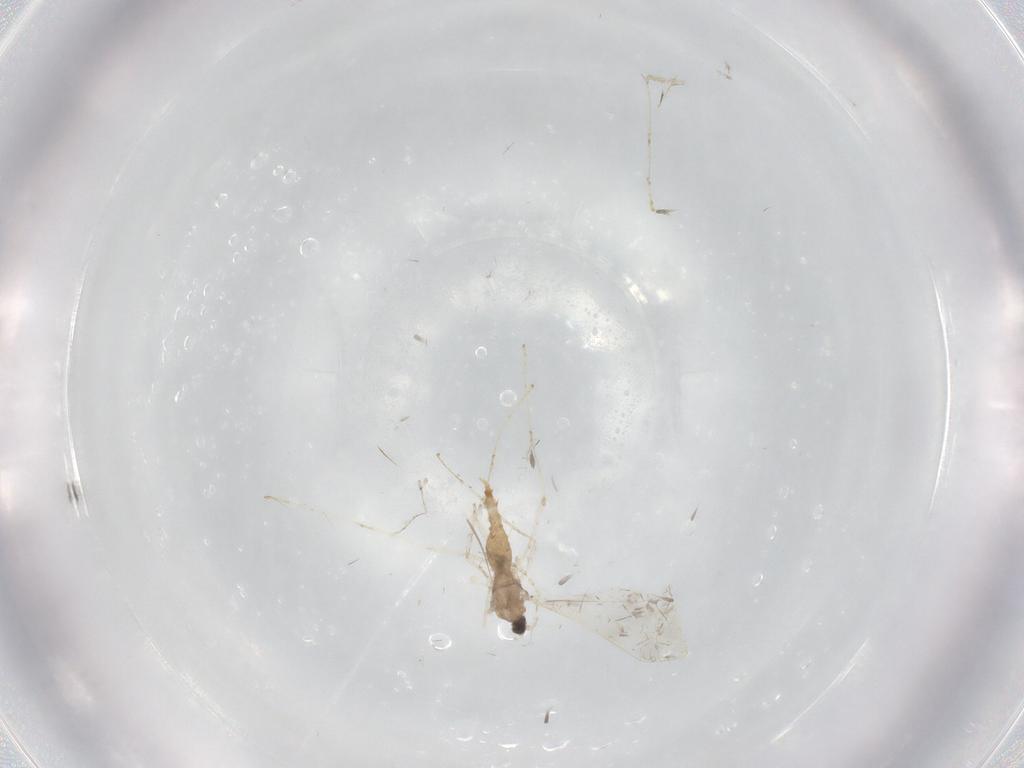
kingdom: Animalia
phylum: Arthropoda
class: Insecta
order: Diptera
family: Cecidomyiidae
